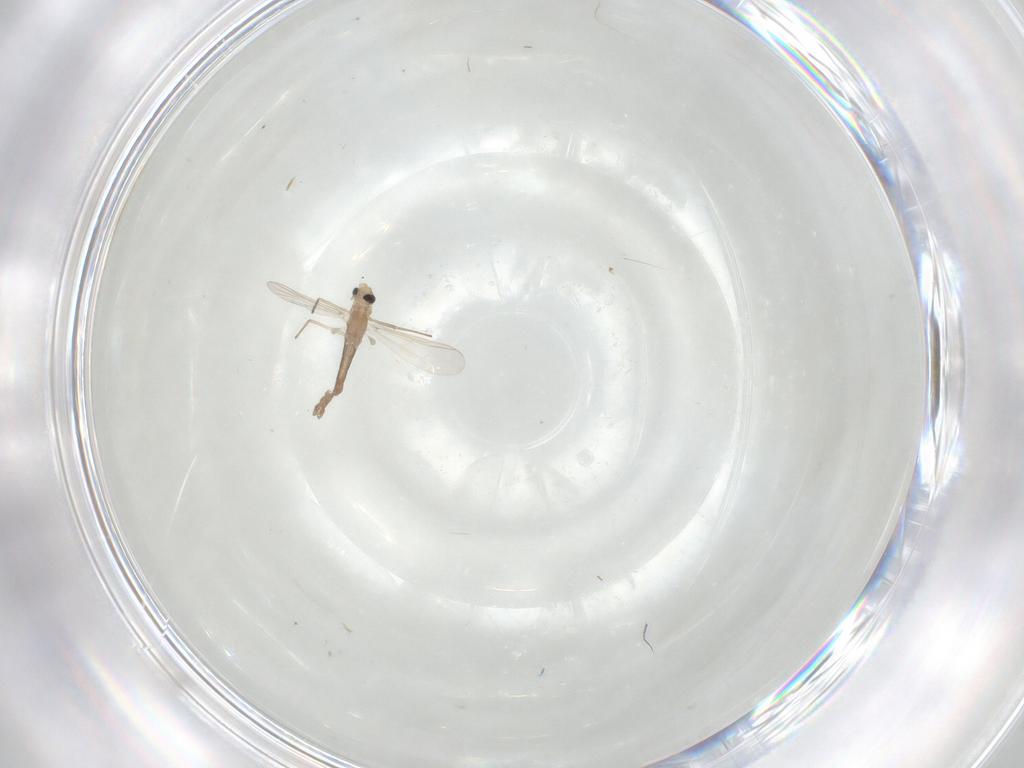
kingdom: Animalia
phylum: Arthropoda
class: Insecta
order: Diptera
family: Chironomidae
